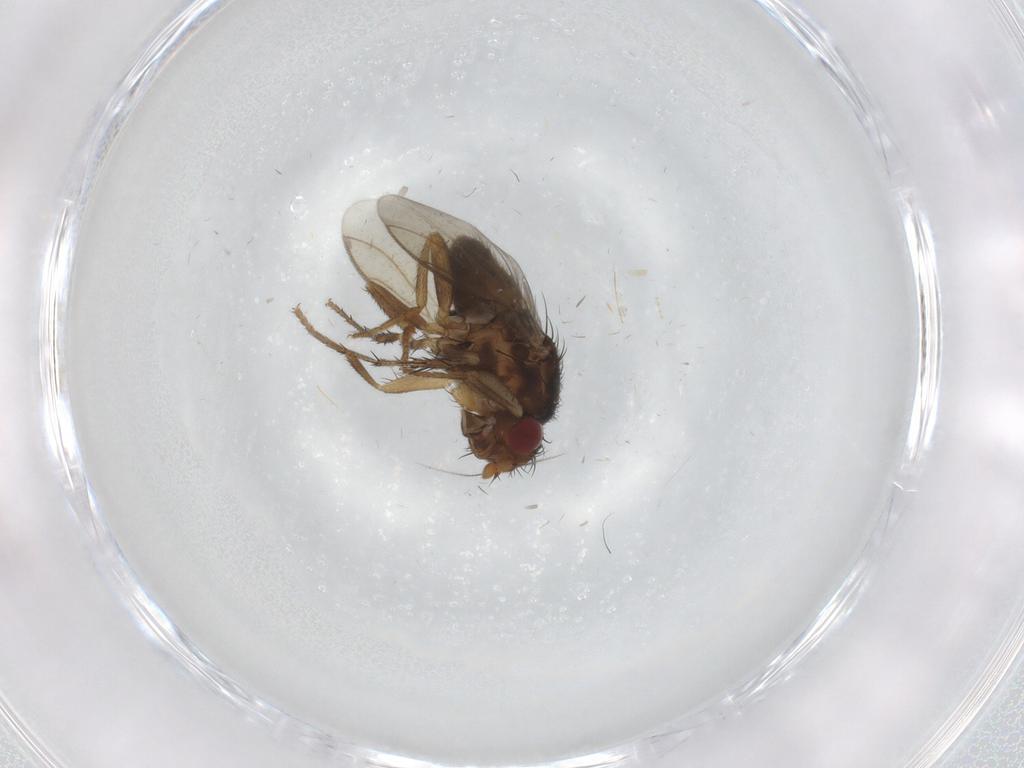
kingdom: Animalia
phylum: Arthropoda
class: Insecta
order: Diptera
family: Sphaeroceridae
